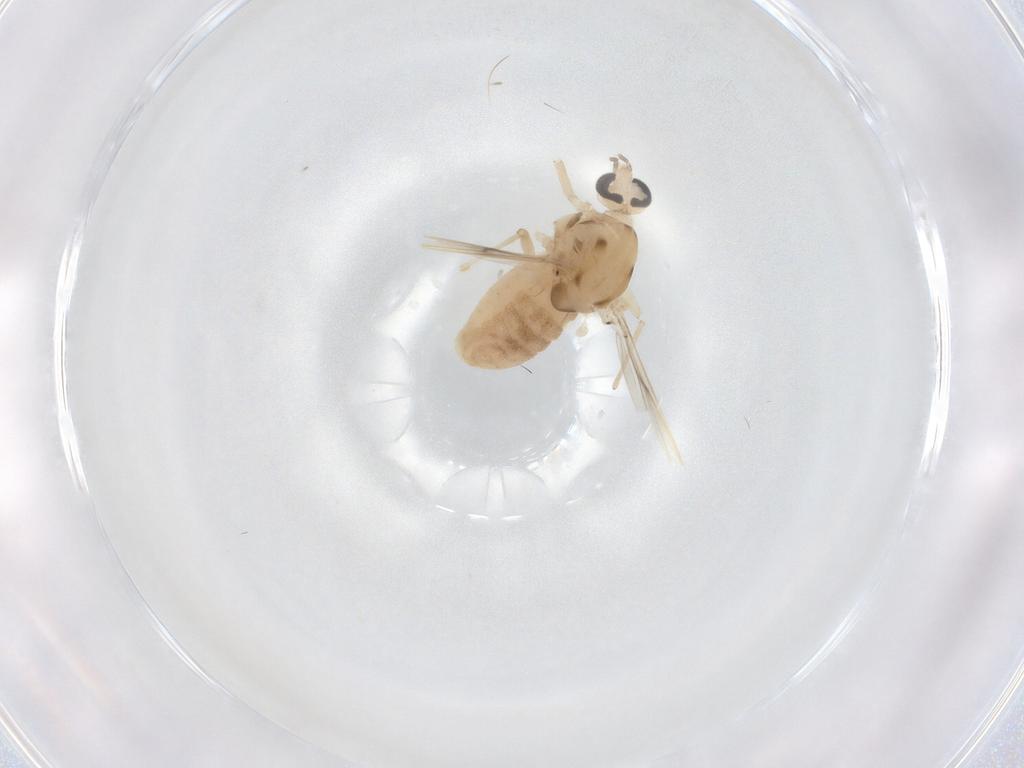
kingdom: Animalia
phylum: Arthropoda
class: Insecta
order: Diptera
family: Chironomidae
